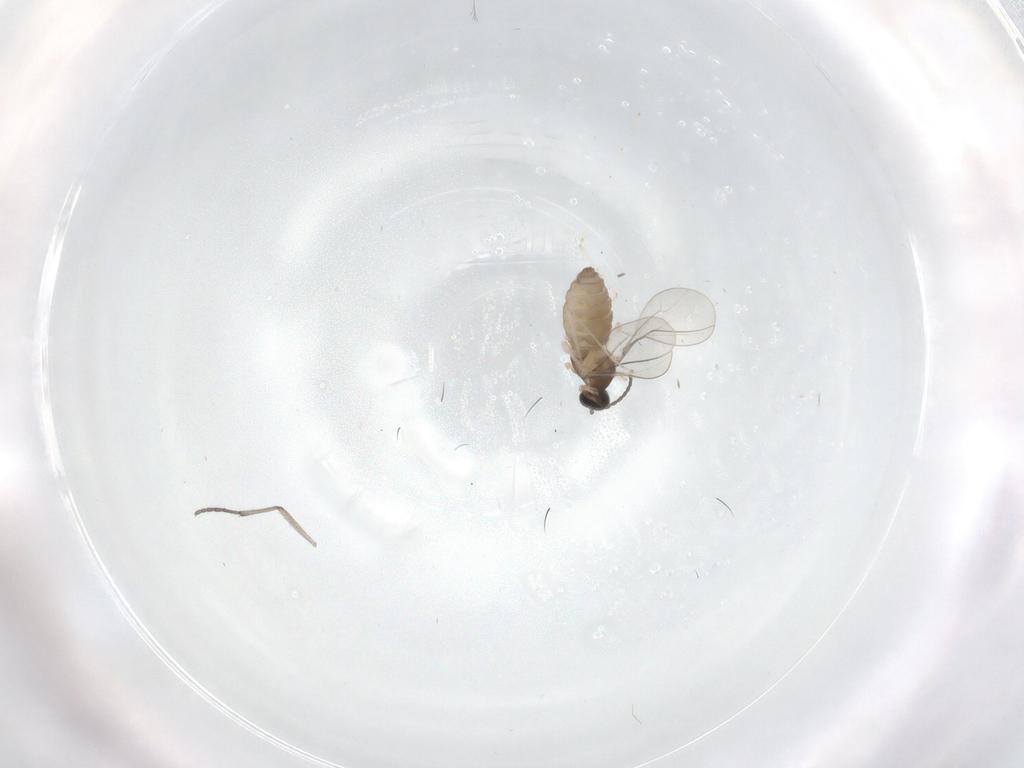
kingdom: Animalia
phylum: Arthropoda
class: Insecta
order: Diptera
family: Cecidomyiidae
